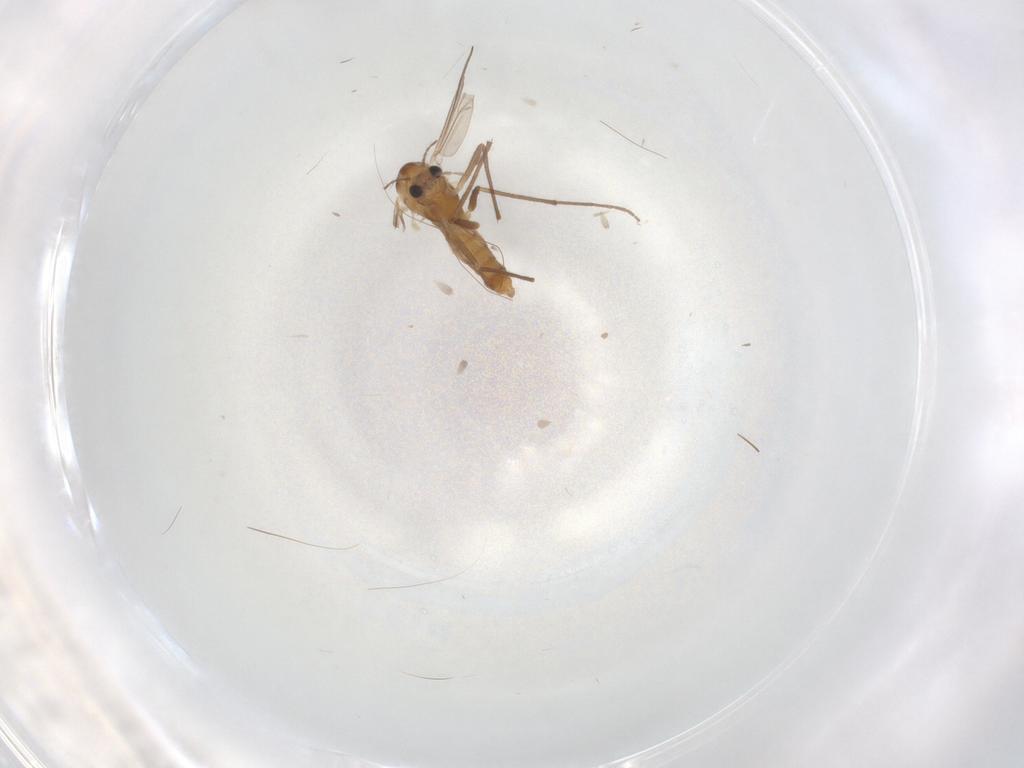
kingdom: Animalia
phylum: Arthropoda
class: Insecta
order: Diptera
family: Chironomidae
